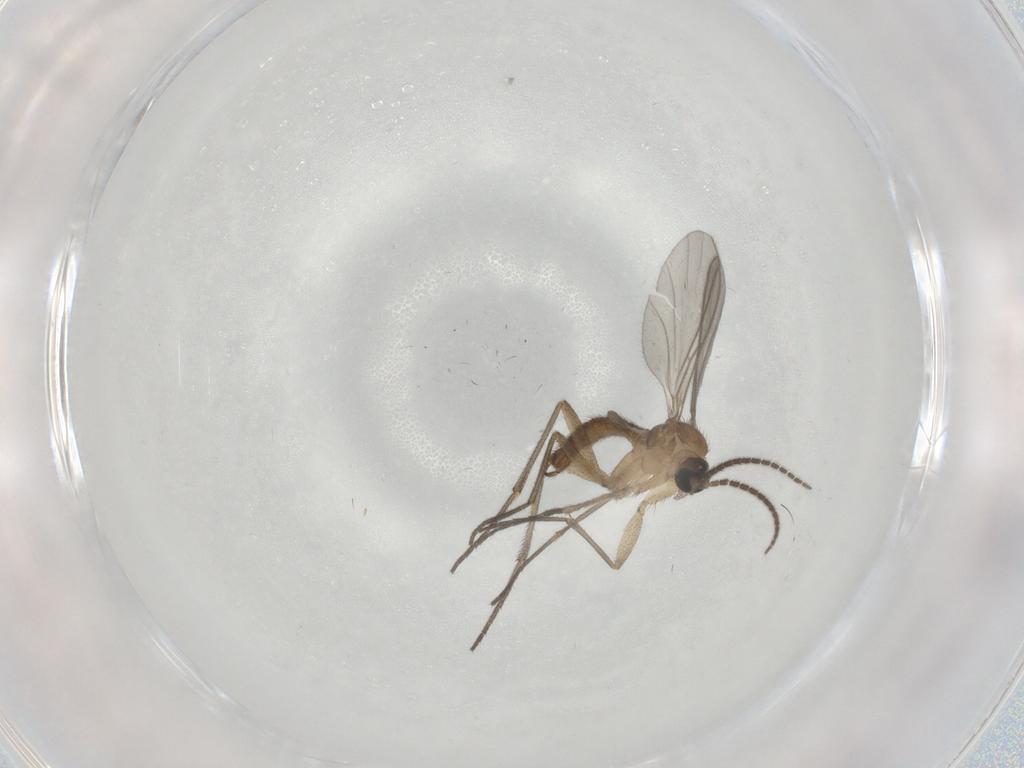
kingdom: Animalia
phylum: Arthropoda
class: Insecta
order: Diptera
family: Sciaridae
